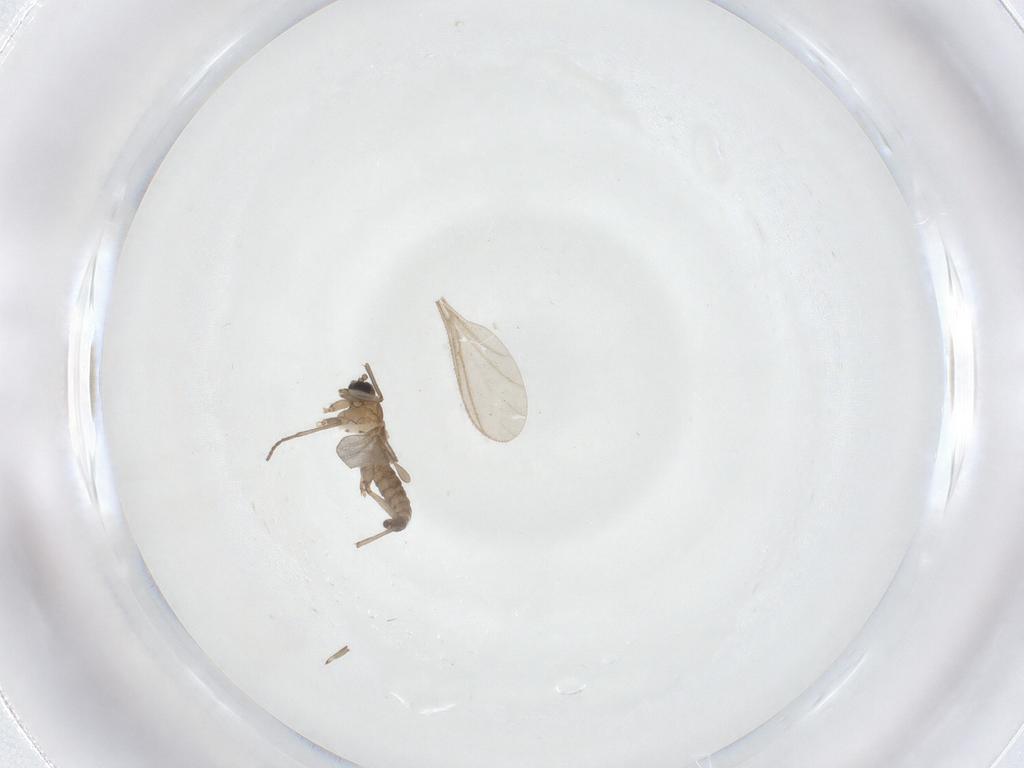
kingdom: Animalia
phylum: Arthropoda
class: Insecta
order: Diptera
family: Sciaridae
